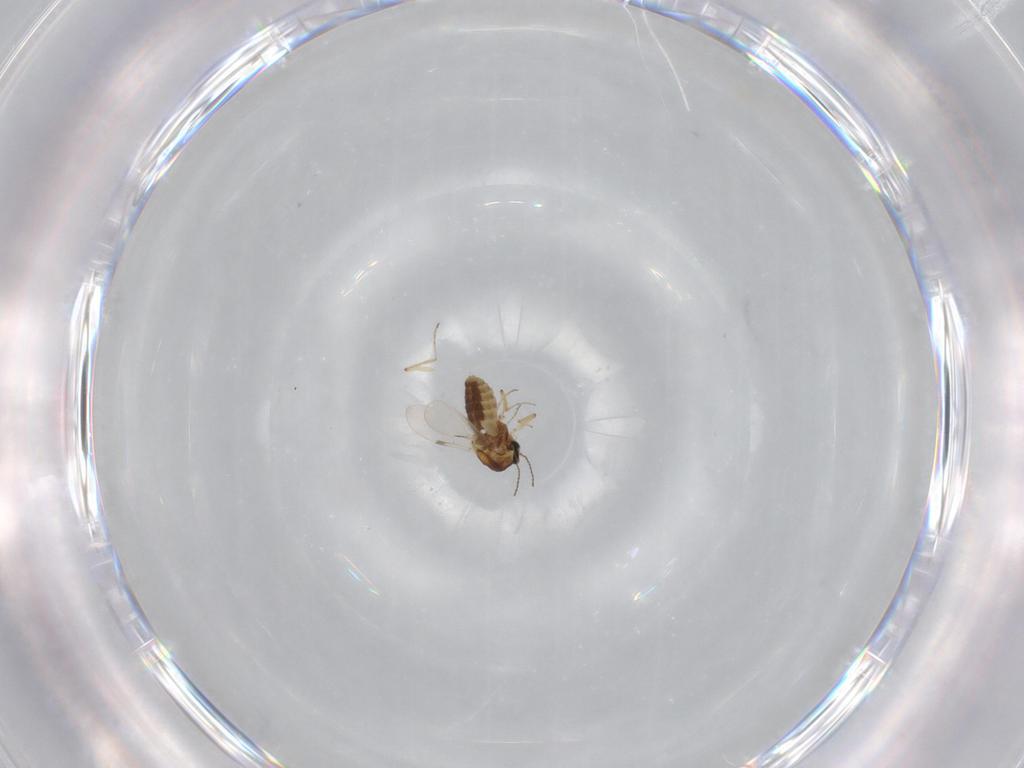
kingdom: Animalia
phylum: Arthropoda
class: Insecta
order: Diptera
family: Ceratopogonidae
